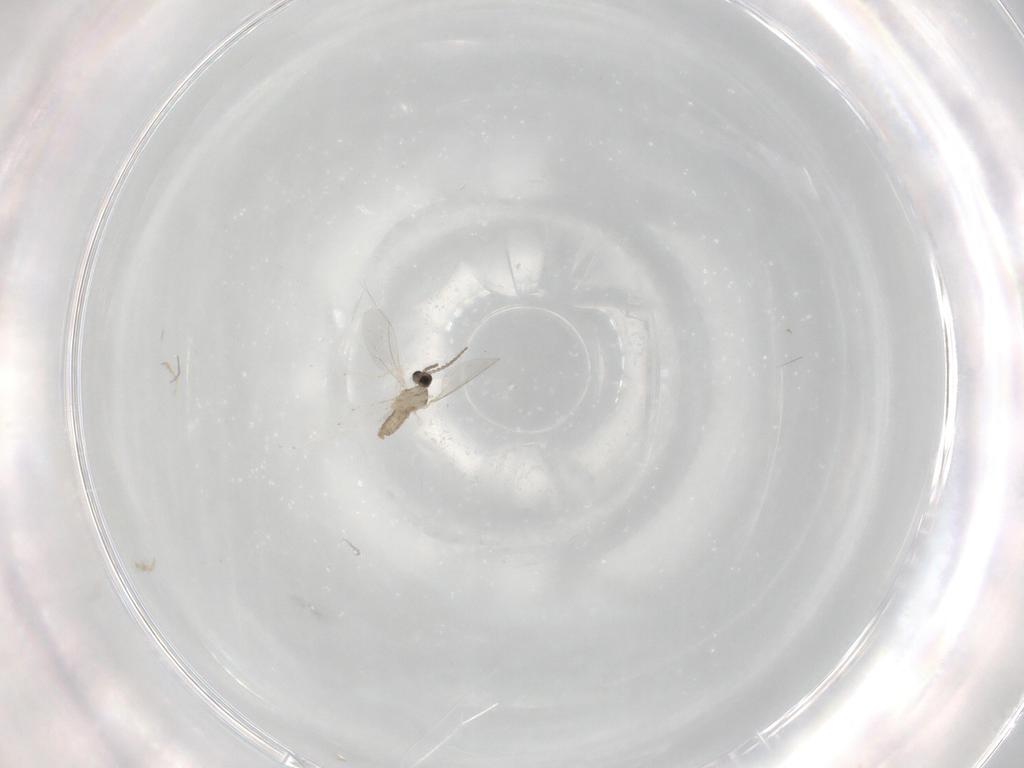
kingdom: Animalia
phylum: Arthropoda
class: Insecta
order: Diptera
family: Cecidomyiidae
